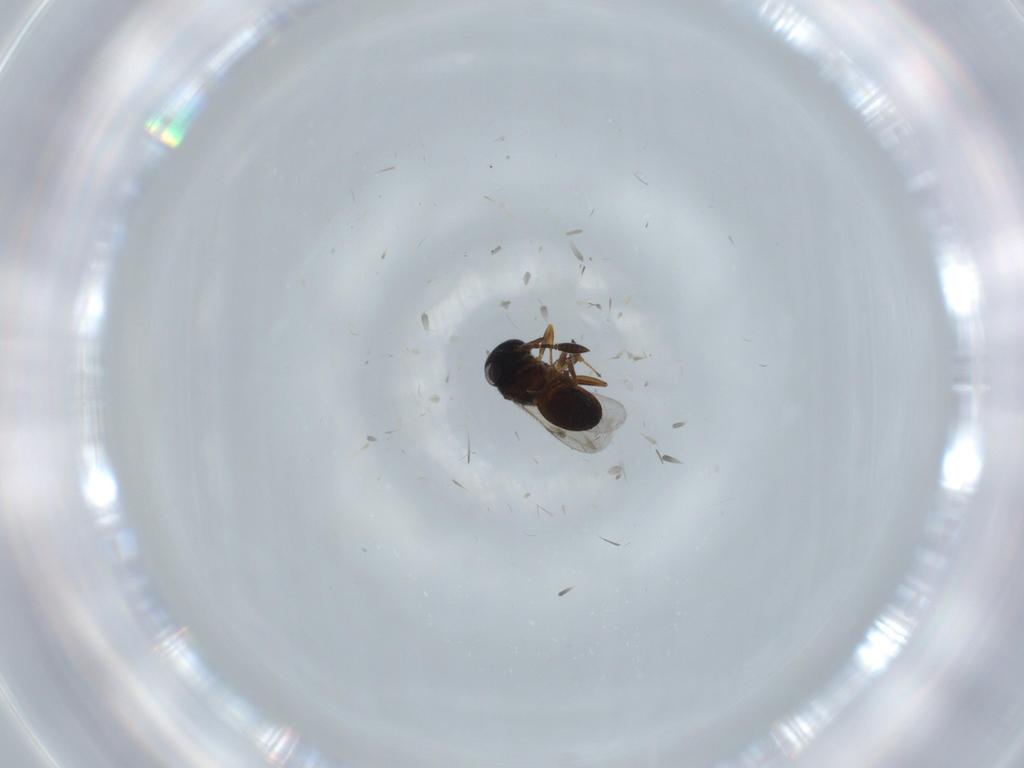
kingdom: Animalia
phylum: Arthropoda
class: Insecta
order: Coleoptera
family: Curculionidae
